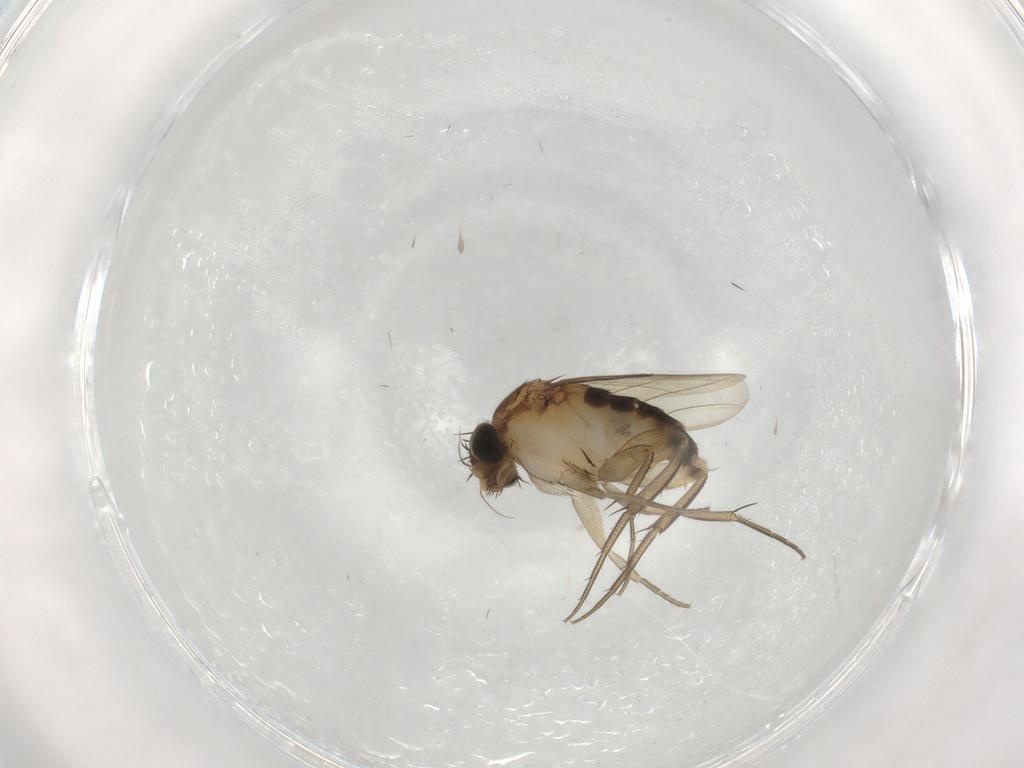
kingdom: Animalia
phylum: Arthropoda
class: Insecta
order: Diptera
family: Phoridae
